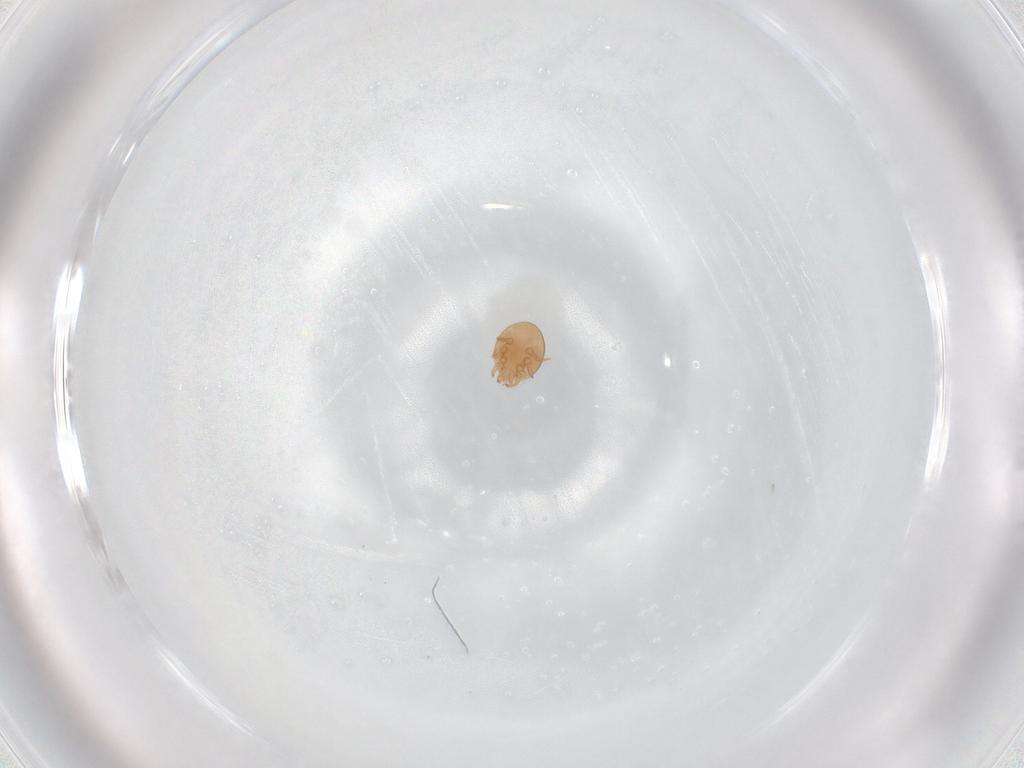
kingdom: Animalia
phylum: Arthropoda
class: Arachnida
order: Mesostigmata
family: Trematuridae
